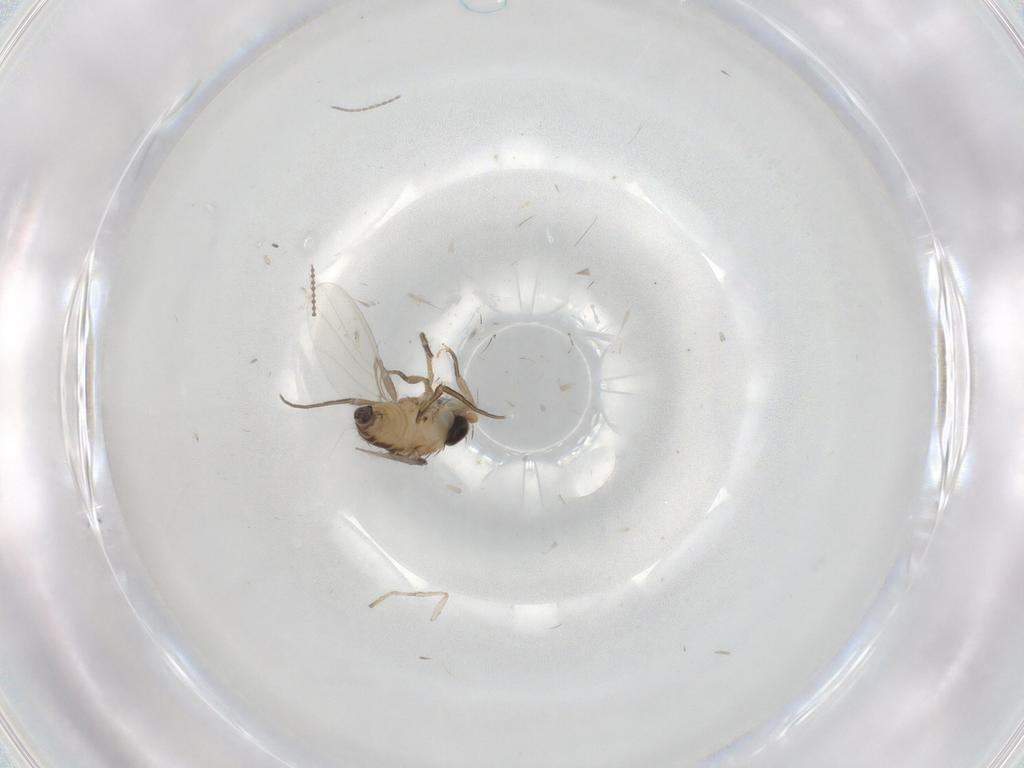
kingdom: Animalia
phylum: Arthropoda
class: Insecta
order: Diptera
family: Phoridae
